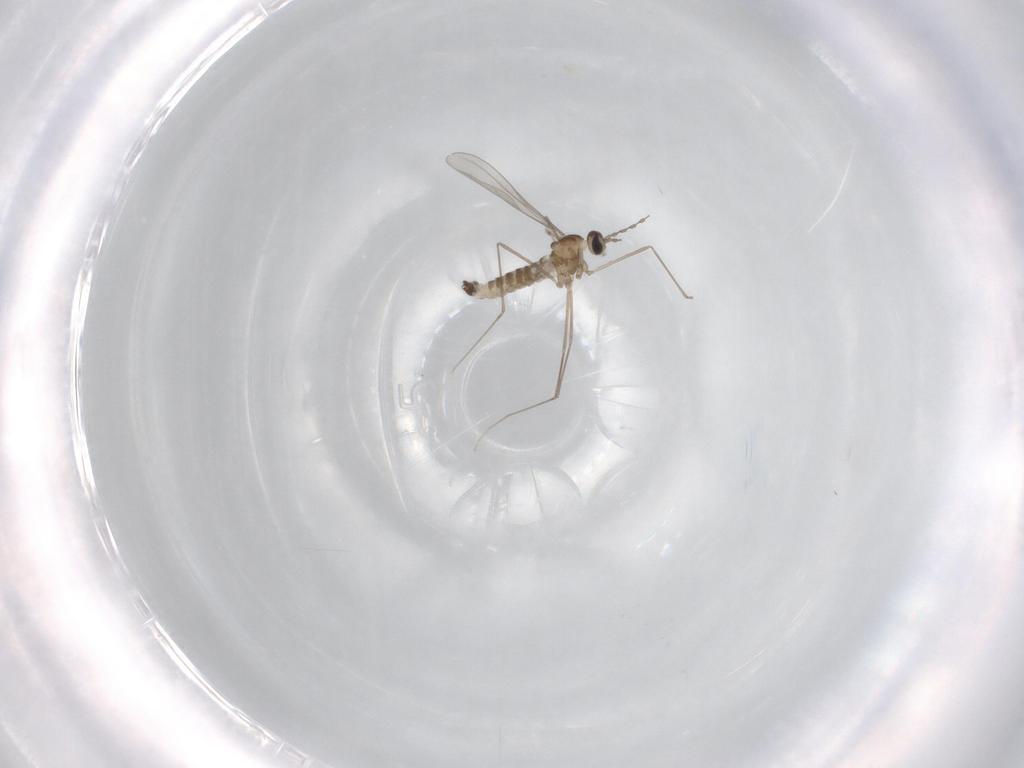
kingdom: Animalia
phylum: Arthropoda
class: Insecta
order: Diptera
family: Cecidomyiidae
